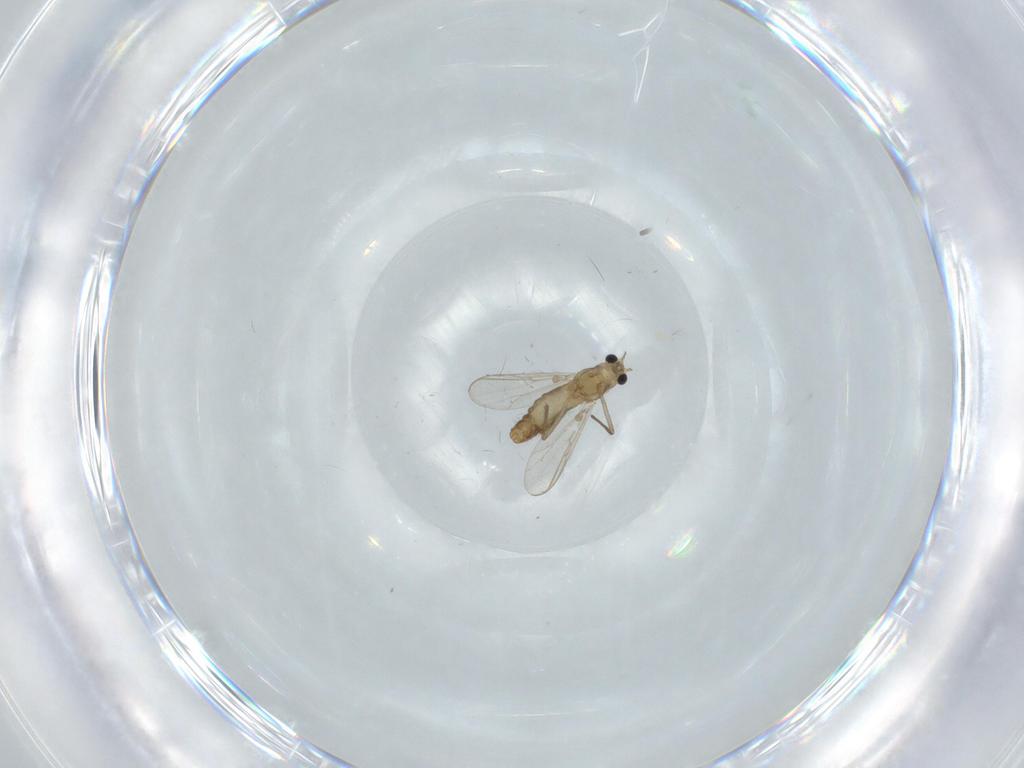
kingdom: Animalia
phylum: Arthropoda
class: Insecta
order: Diptera
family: Chironomidae
